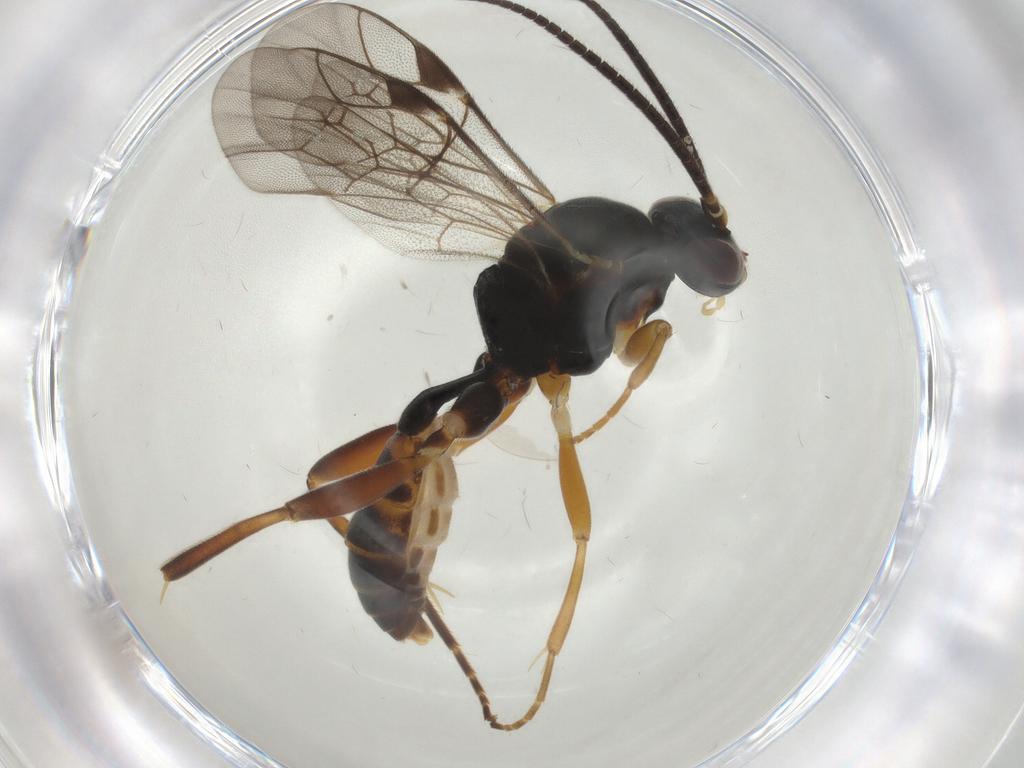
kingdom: Animalia
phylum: Arthropoda
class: Insecta
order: Hymenoptera
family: Ichneumonidae
